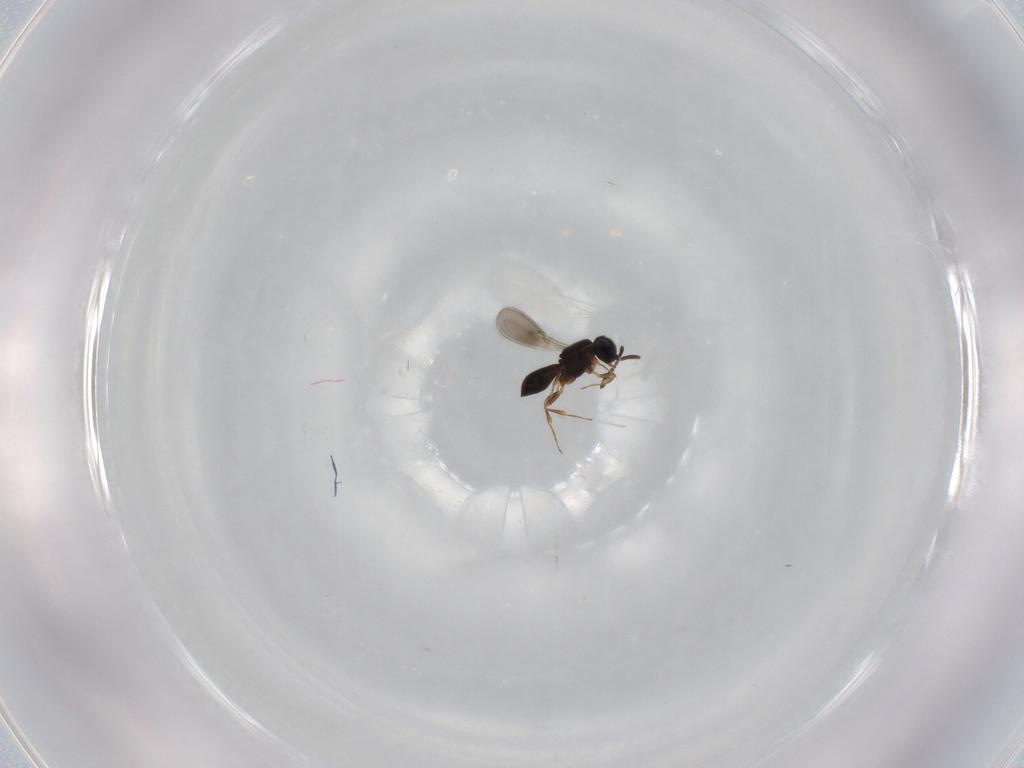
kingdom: Animalia
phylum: Arthropoda
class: Insecta
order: Hymenoptera
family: Scelionidae
